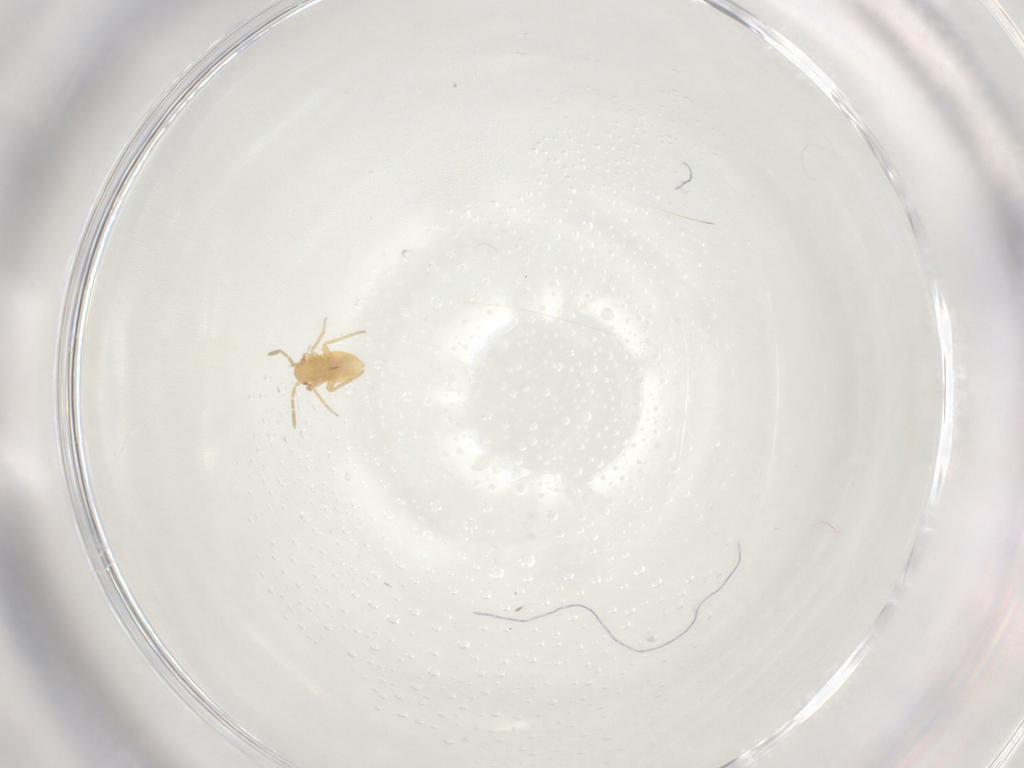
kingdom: Animalia
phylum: Arthropoda
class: Insecta
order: Hemiptera
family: Miridae
